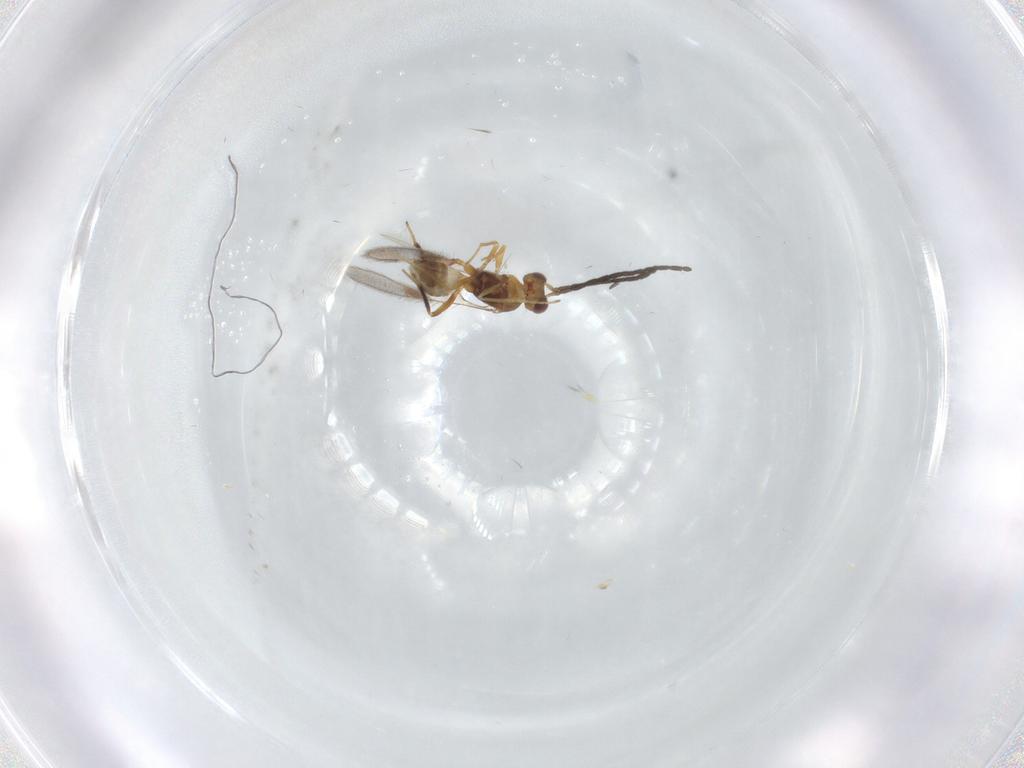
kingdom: Animalia
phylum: Arthropoda
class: Insecta
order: Hymenoptera
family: Mymaridae
